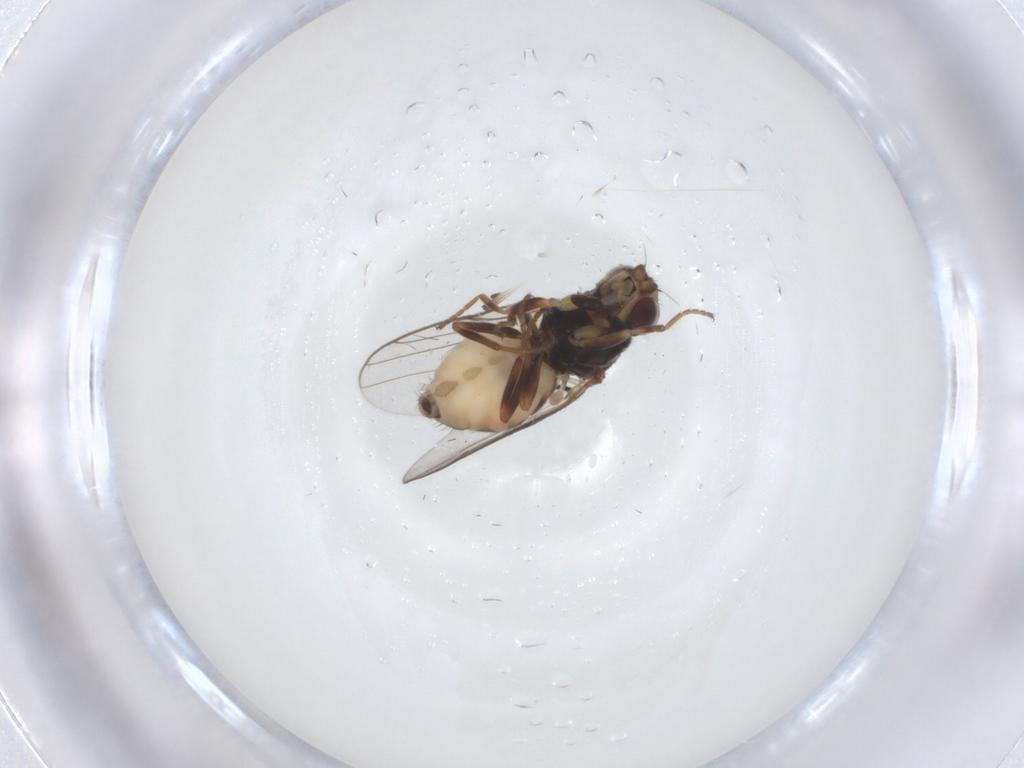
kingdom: Animalia
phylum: Arthropoda
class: Insecta
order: Diptera
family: Chloropidae
